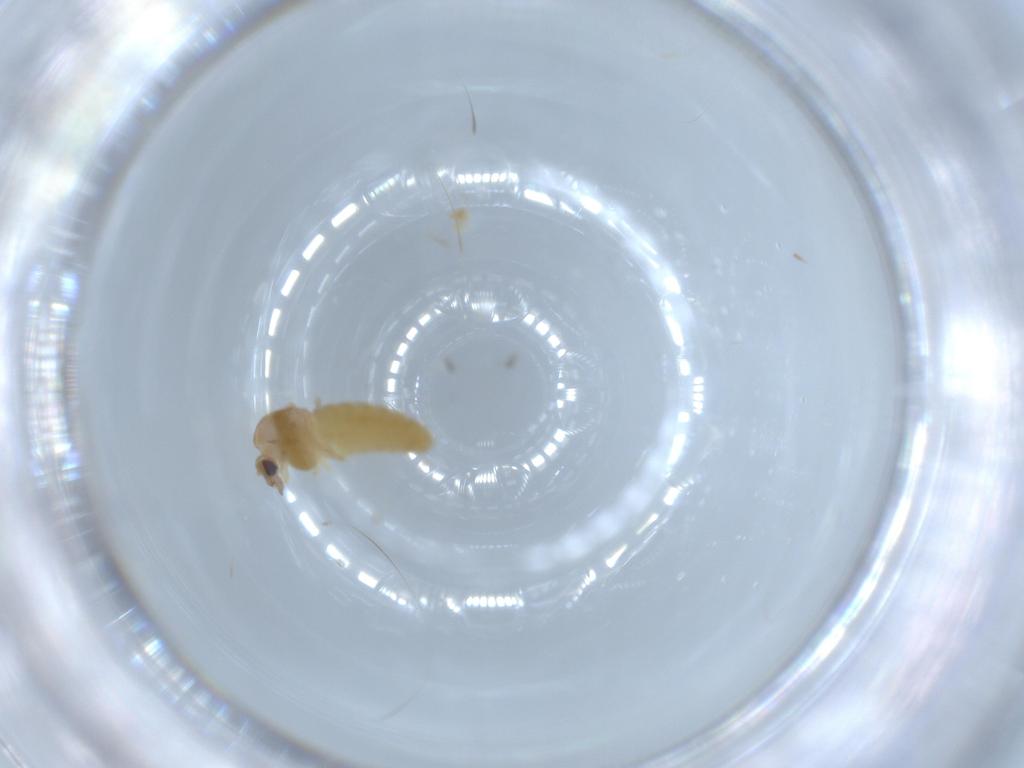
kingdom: Animalia
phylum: Arthropoda
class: Insecta
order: Diptera
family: Chironomidae
